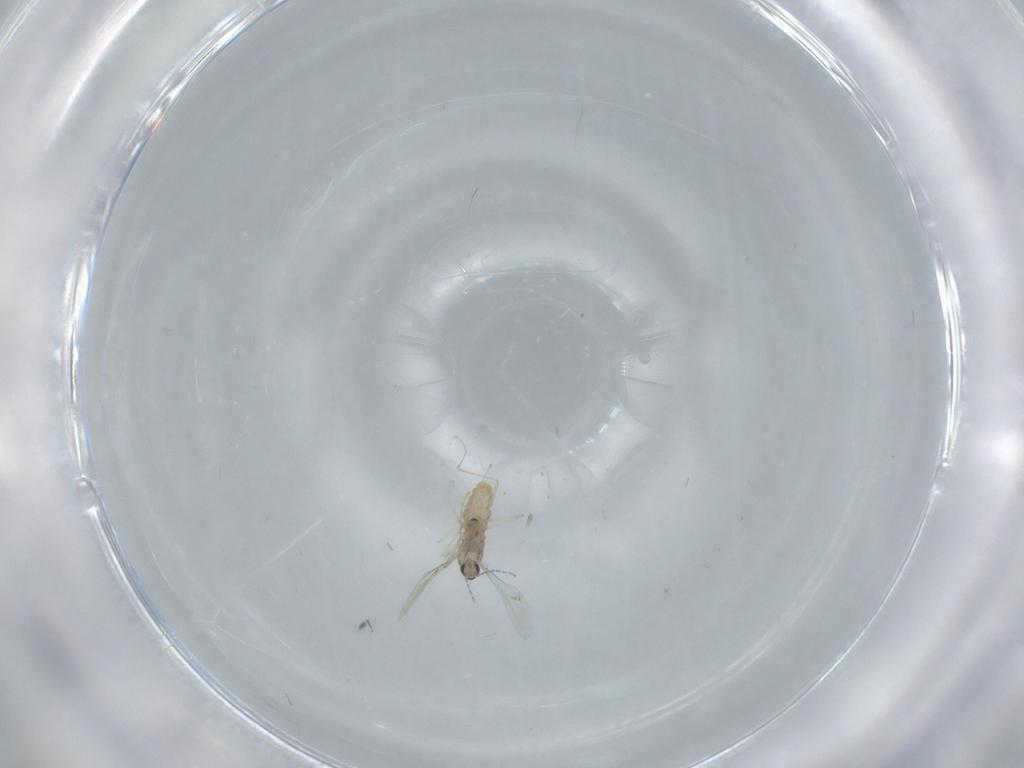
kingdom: Animalia
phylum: Arthropoda
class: Insecta
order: Diptera
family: Cecidomyiidae
